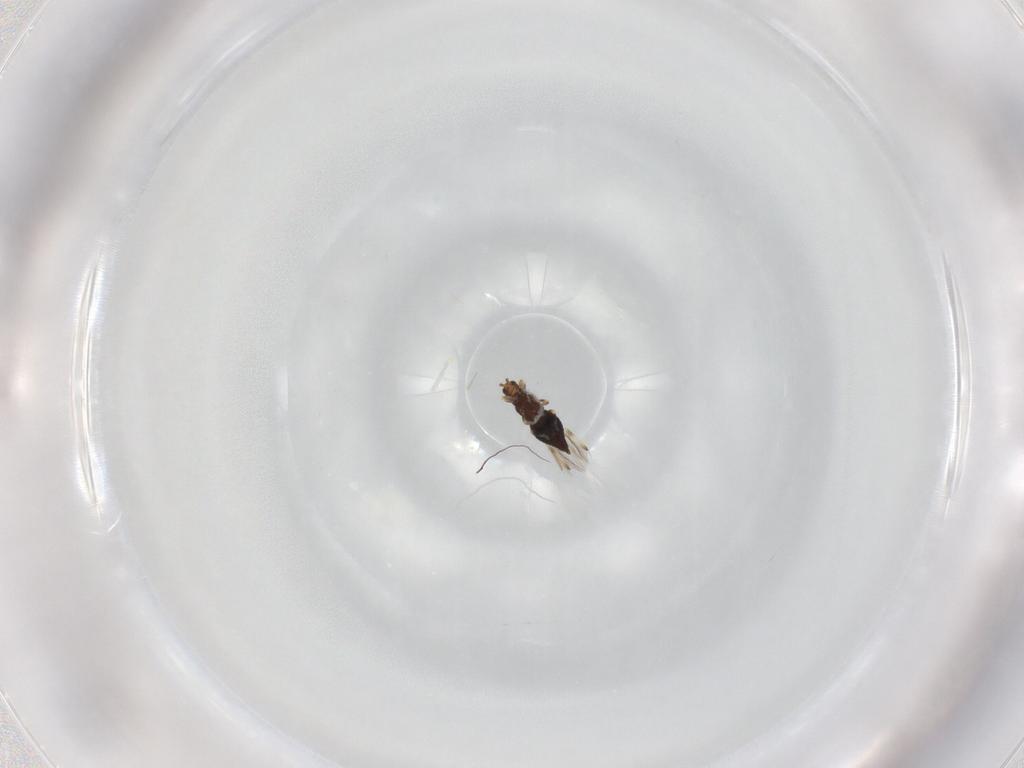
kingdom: Animalia
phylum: Arthropoda
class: Insecta
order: Thysanoptera
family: Thripidae
